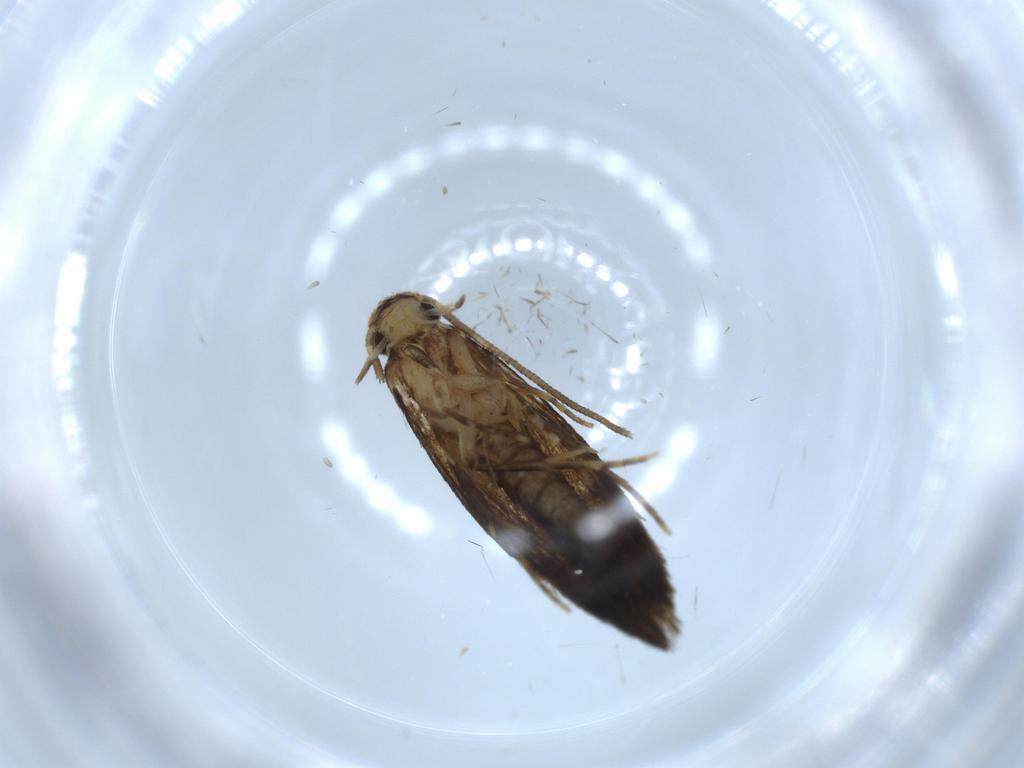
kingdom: Animalia
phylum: Arthropoda
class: Insecta
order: Lepidoptera
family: Tineidae
